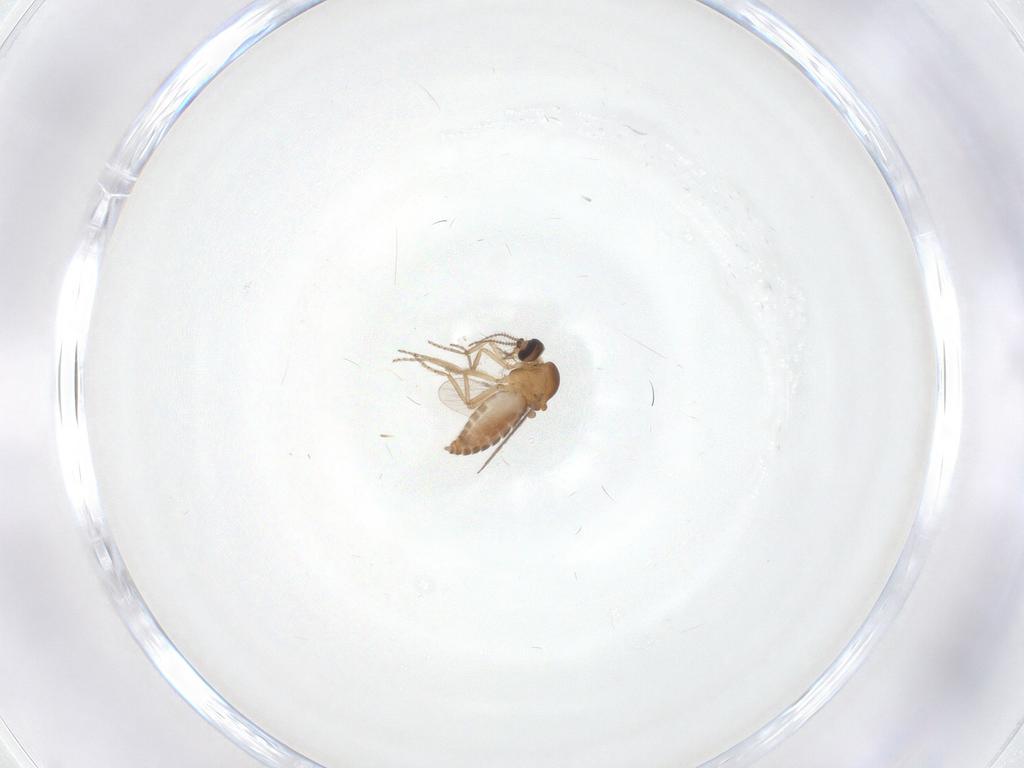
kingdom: Animalia
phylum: Arthropoda
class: Insecta
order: Diptera
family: Ceratopogonidae
